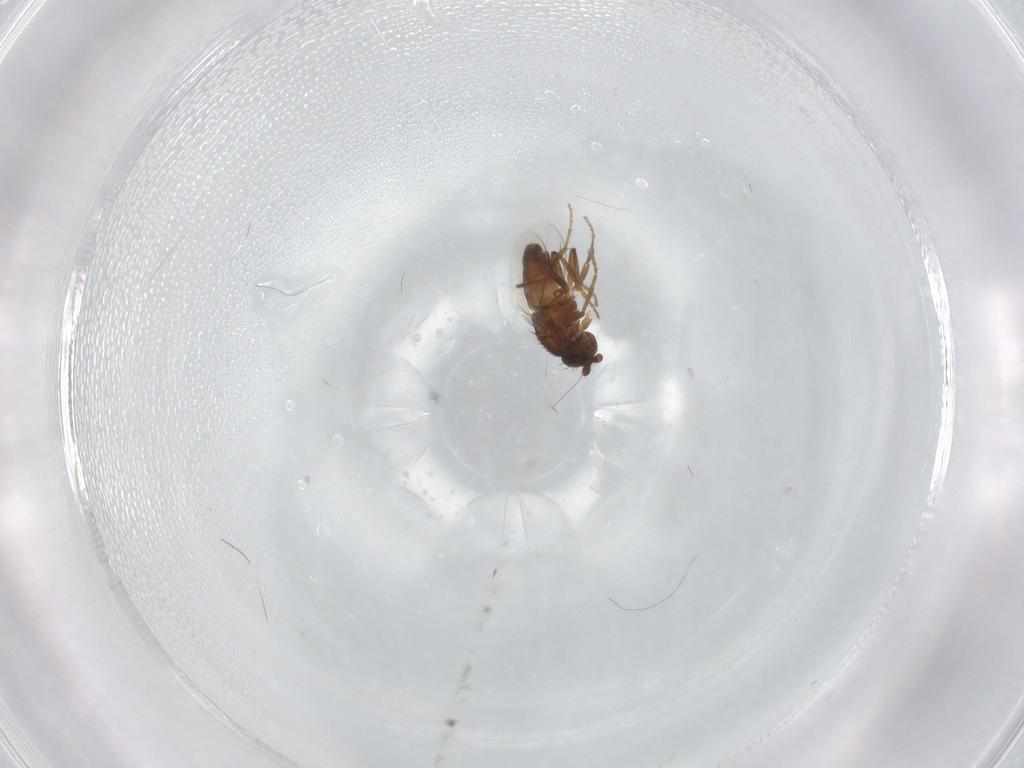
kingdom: Animalia
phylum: Arthropoda
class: Insecta
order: Diptera
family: Sphaeroceridae
